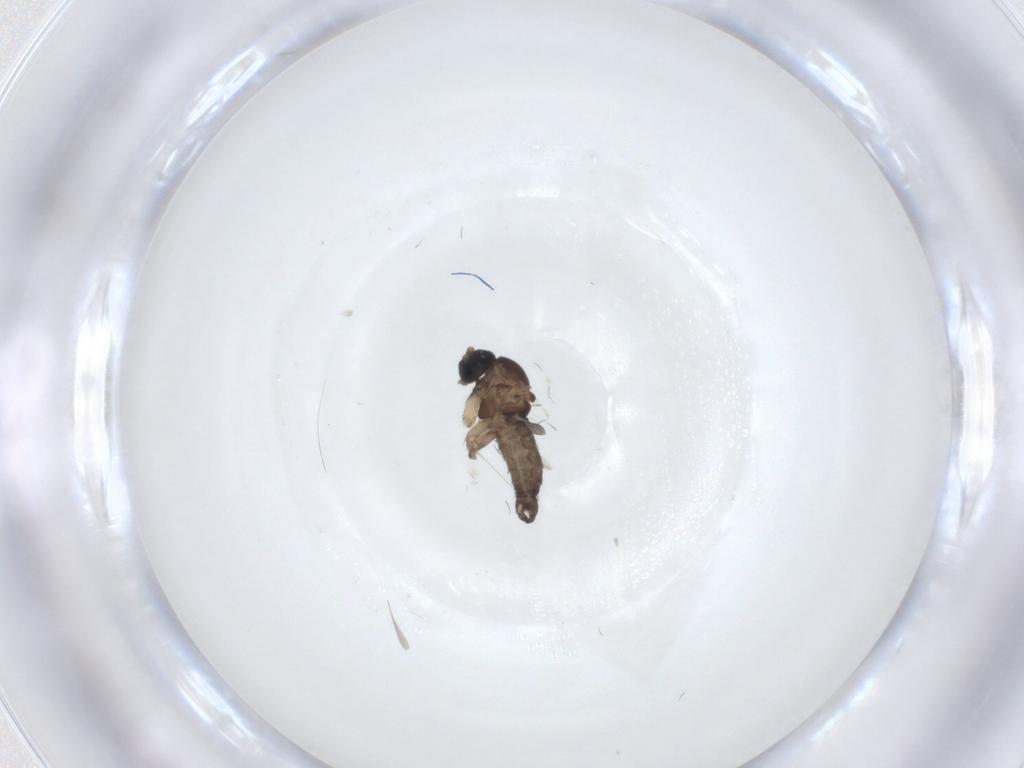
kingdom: Animalia
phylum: Arthropoda
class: Insecta
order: Diptera
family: Sciaridae
